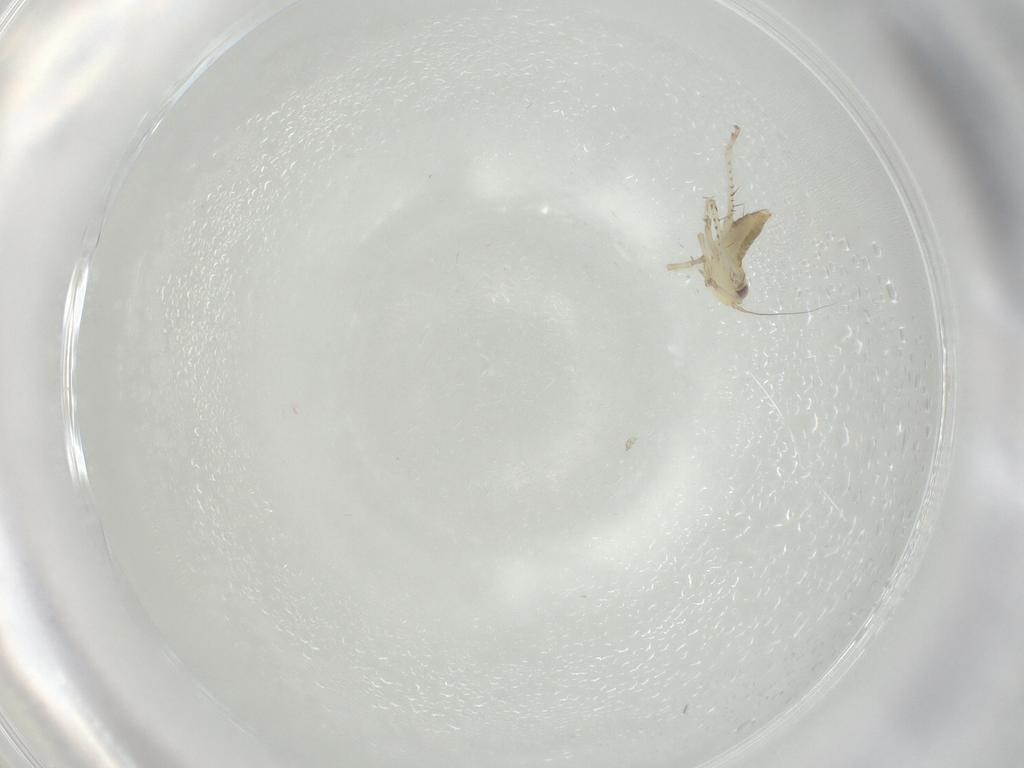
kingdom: Animalia
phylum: Arthropoda
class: Insecta
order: Hemiptera
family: Cicadellidae
